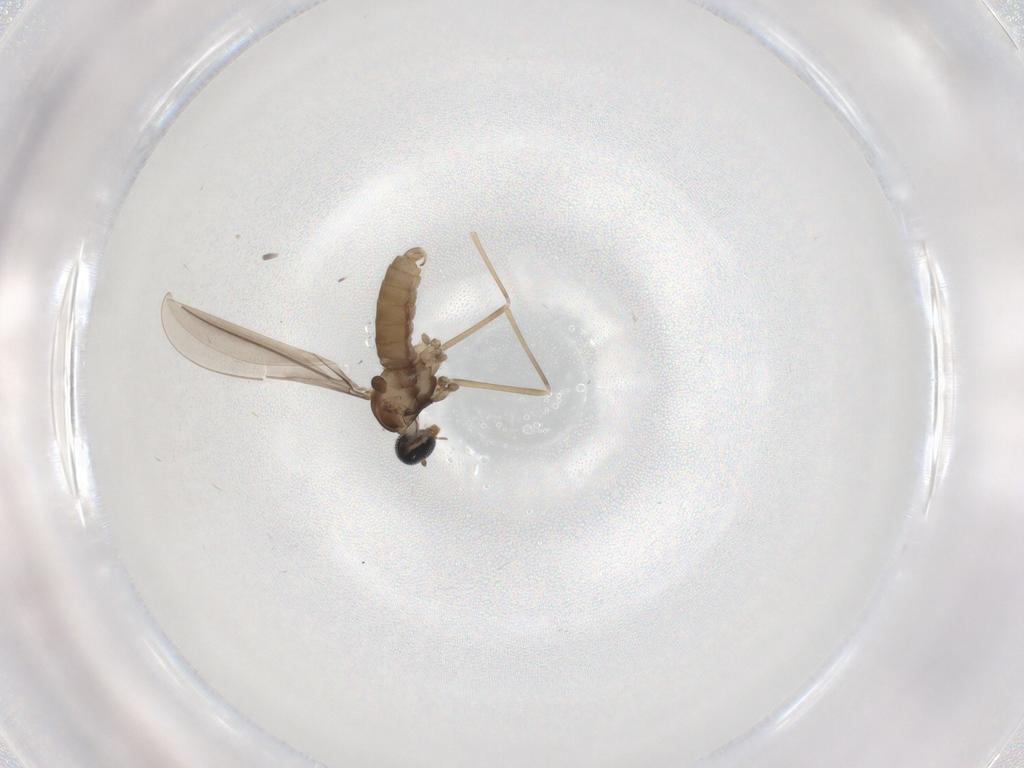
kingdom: Animalia
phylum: Arthropoda
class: Insecta
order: Diptera
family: Cecidomyiidae
